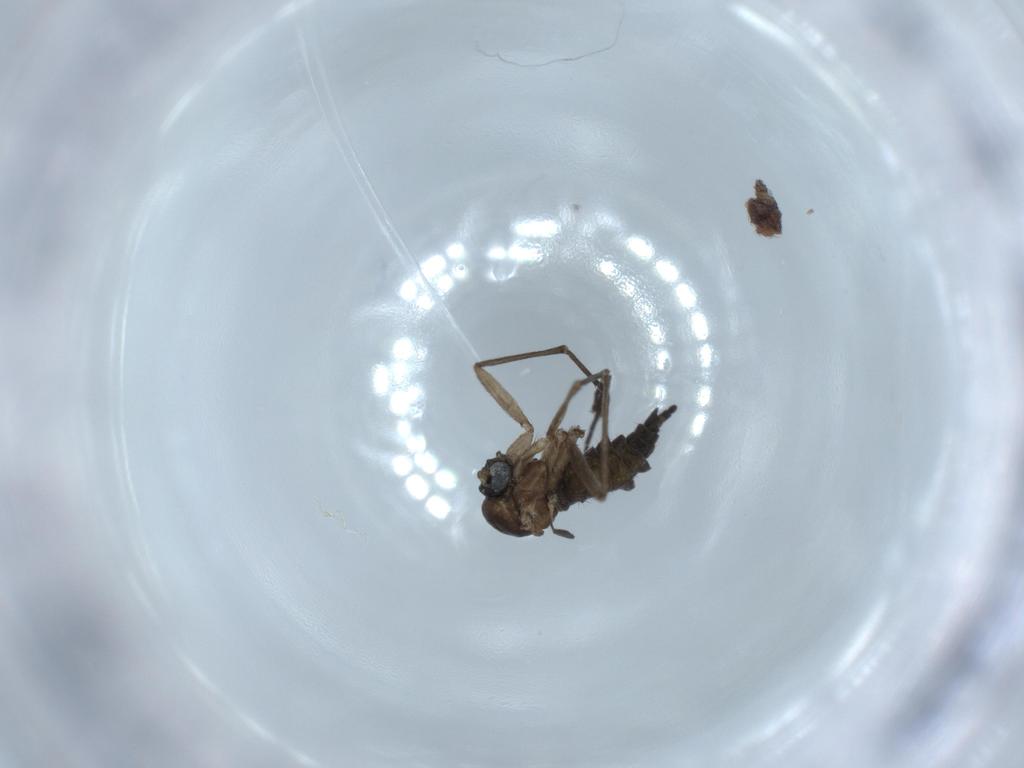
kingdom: Animalia
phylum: Arthropoda
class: Insecta
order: Diptera
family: Sciaridae
